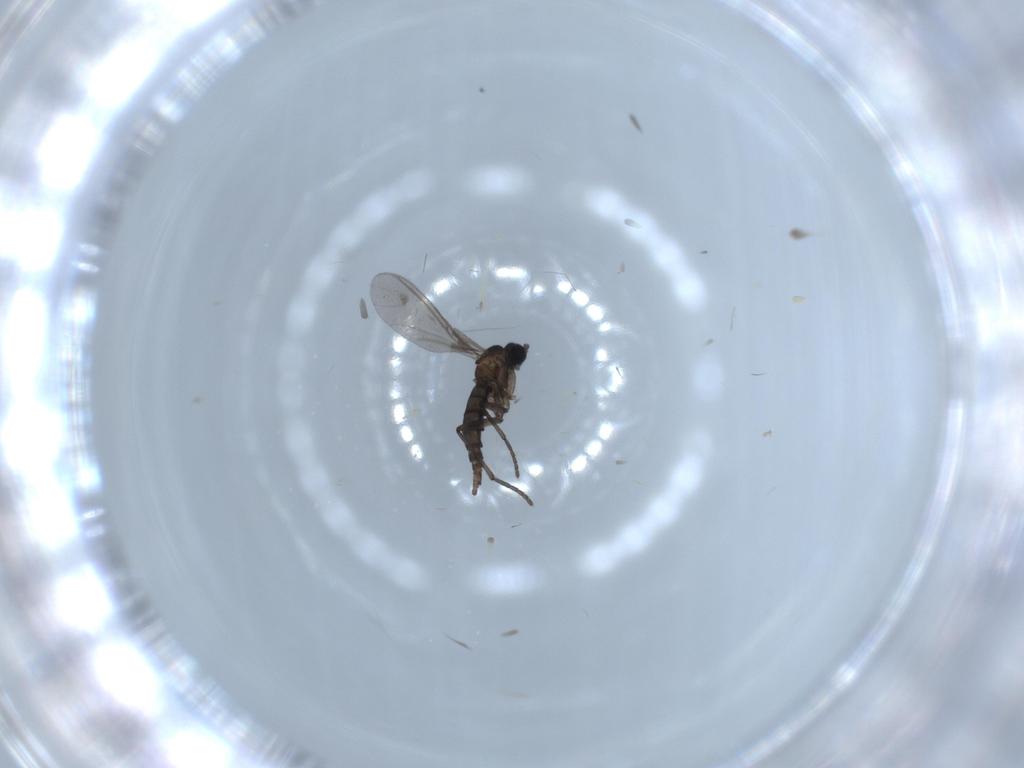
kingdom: Animalia
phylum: Arthropoda
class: Insecta
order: Diptera
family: Sciaridae
